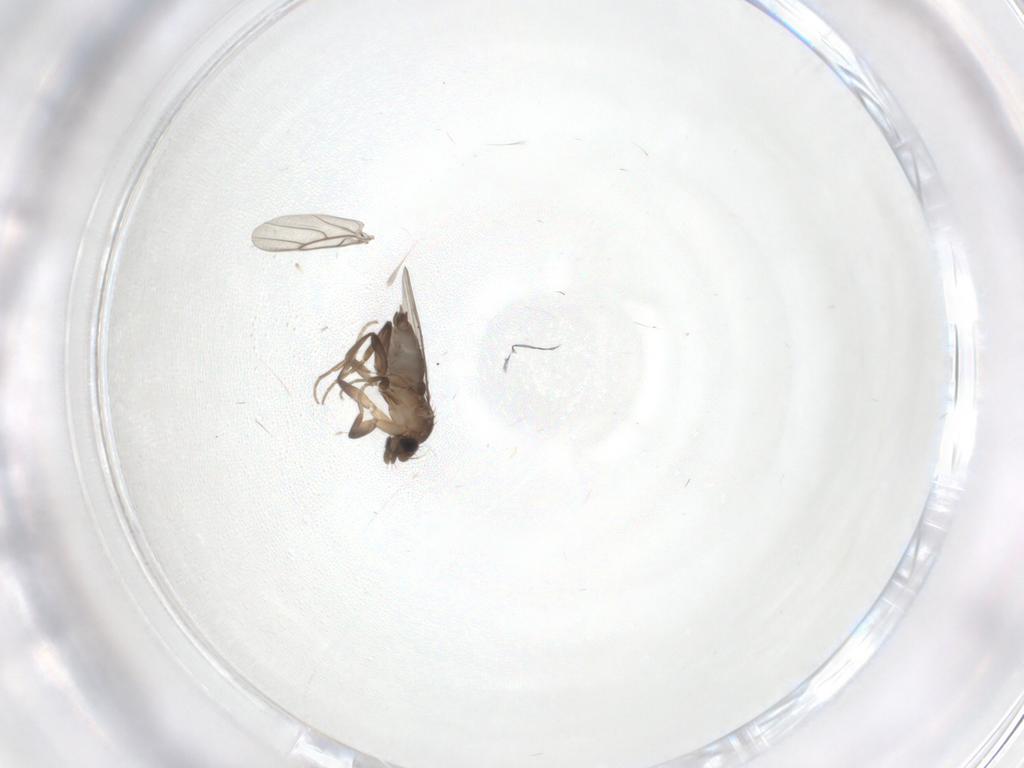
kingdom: Animalia
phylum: Arthropoda
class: Insecta
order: Diptera
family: Phoridae
